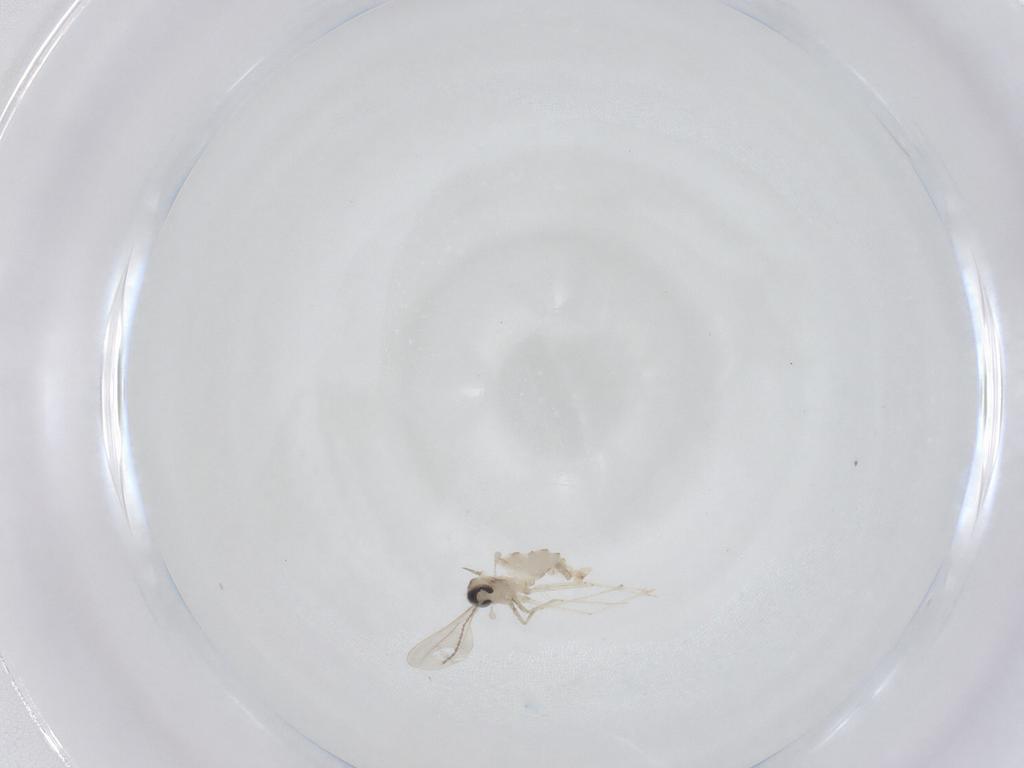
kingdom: Animalia
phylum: Arthropoda
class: Insecta
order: Diptera
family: Cecidomyiidae
